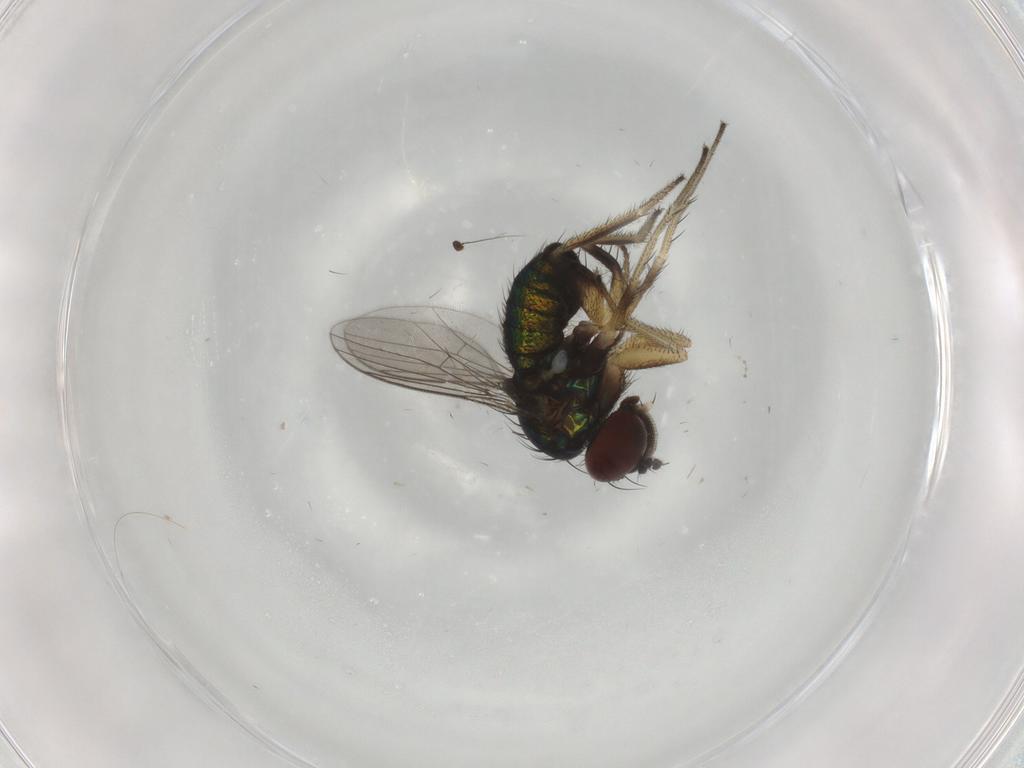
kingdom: Animalia
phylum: Arthropoda
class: Insecta
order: Diptera
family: Dolichopodidae
